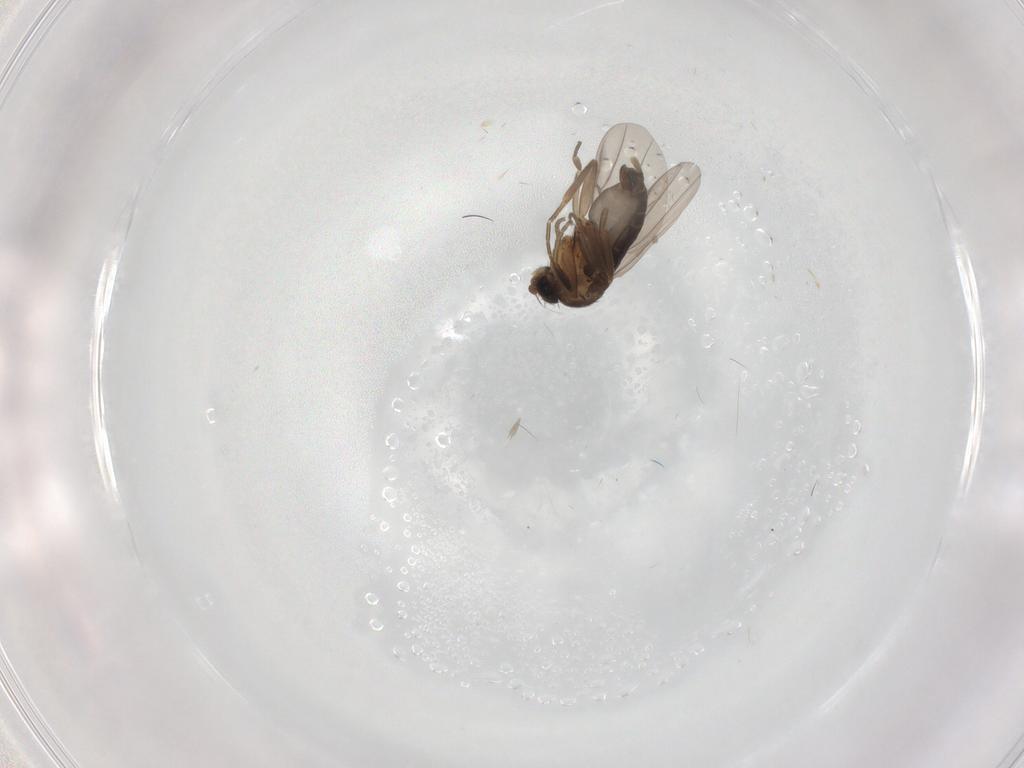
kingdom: Animalia
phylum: Arthropoda
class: Insecta
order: Diptera
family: Phoridae
